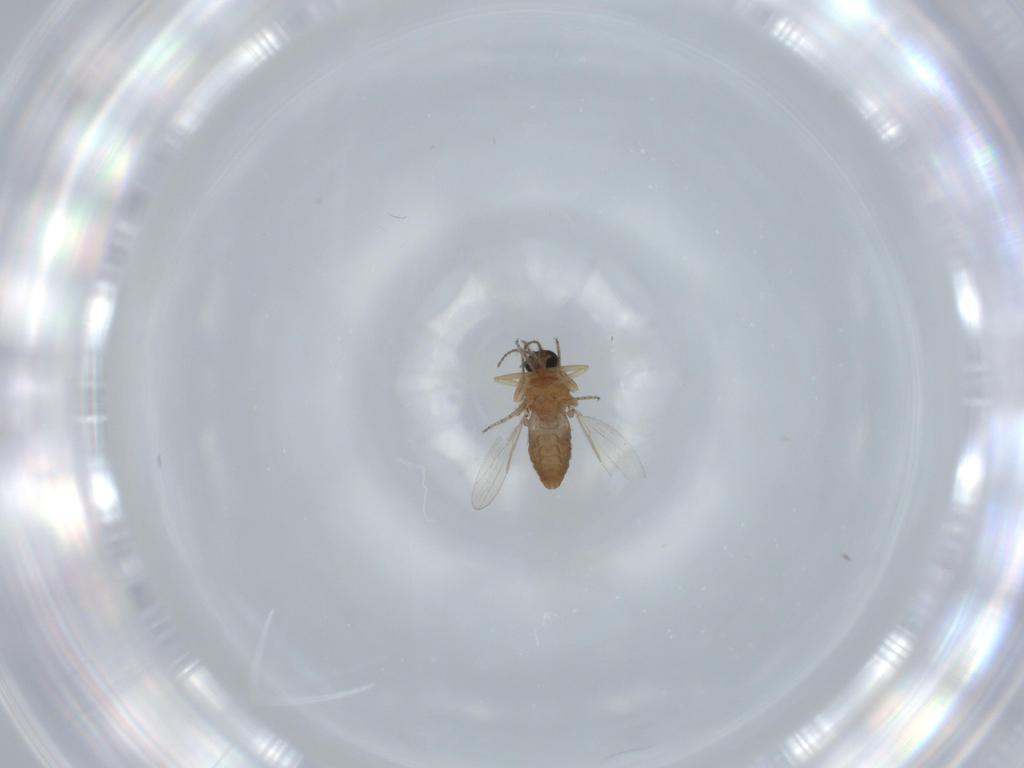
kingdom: Animalia
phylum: Arthropoda
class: Insecta
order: Diptera
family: Ceratopogonidae
